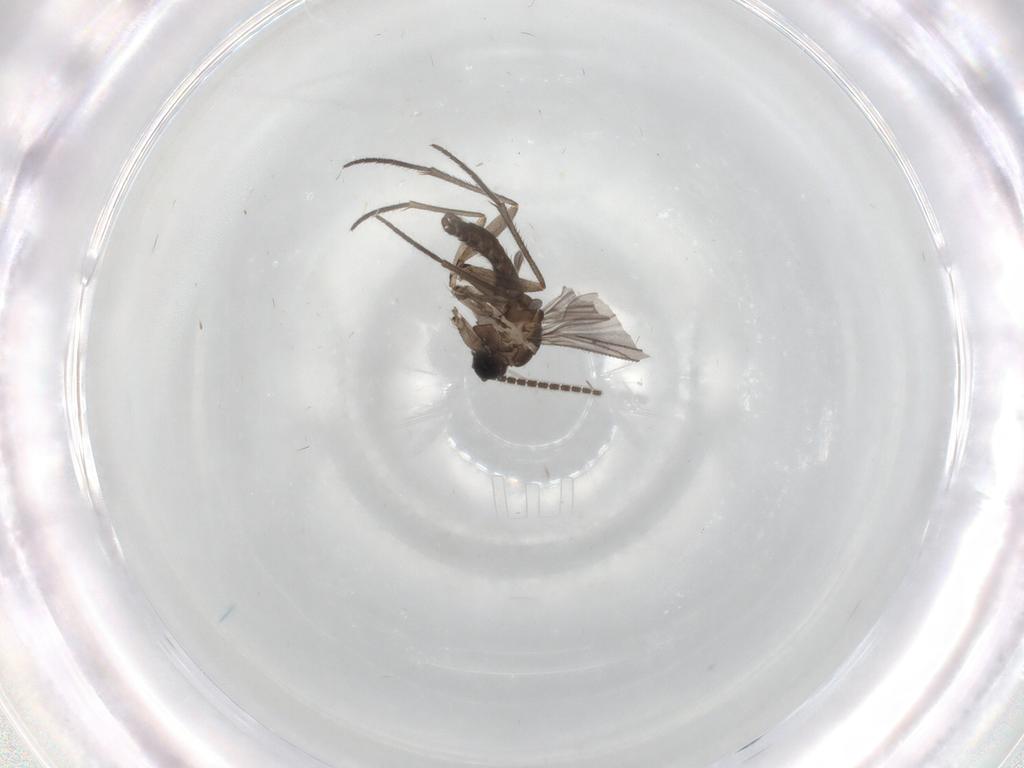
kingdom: Animalia
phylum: Arthropoda
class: Insecta
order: Diptera
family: Sciaridae
